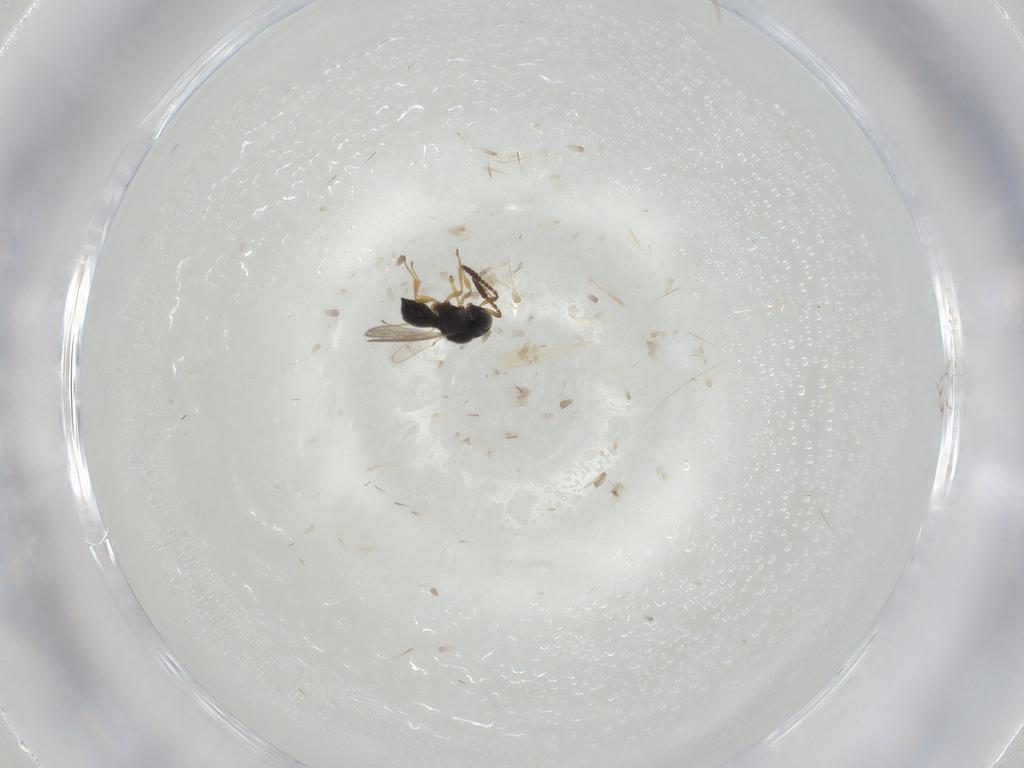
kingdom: Animalia
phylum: Arthropoda
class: Insecta
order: Hymenoptera
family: Scelionidae
